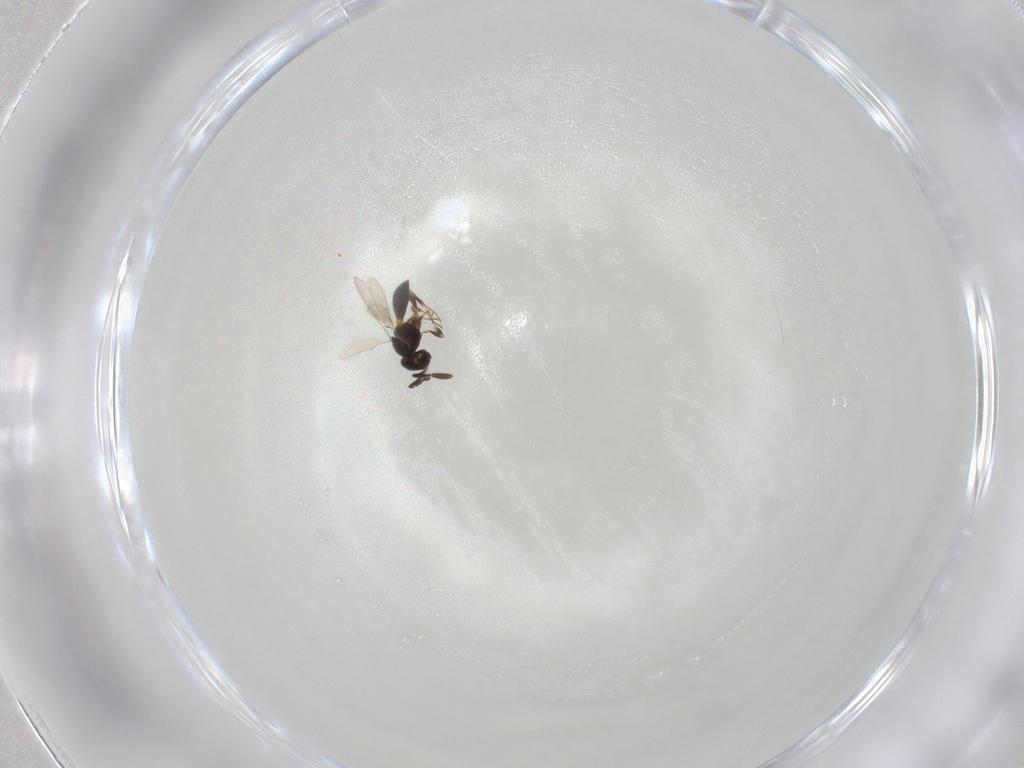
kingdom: Animalia
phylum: Arthropoda
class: Insecta
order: Hymenoptera
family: Scelionidae
